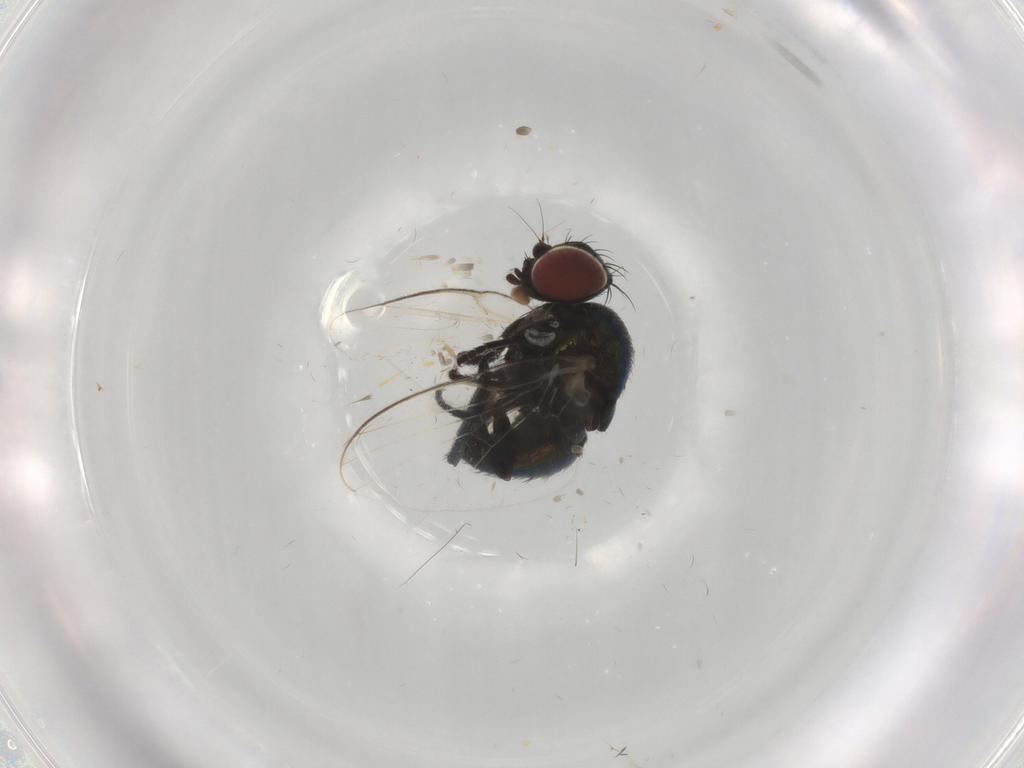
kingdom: Animalia
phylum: Arthropoda
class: Insecta
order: Diptera
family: Agromyzidae
